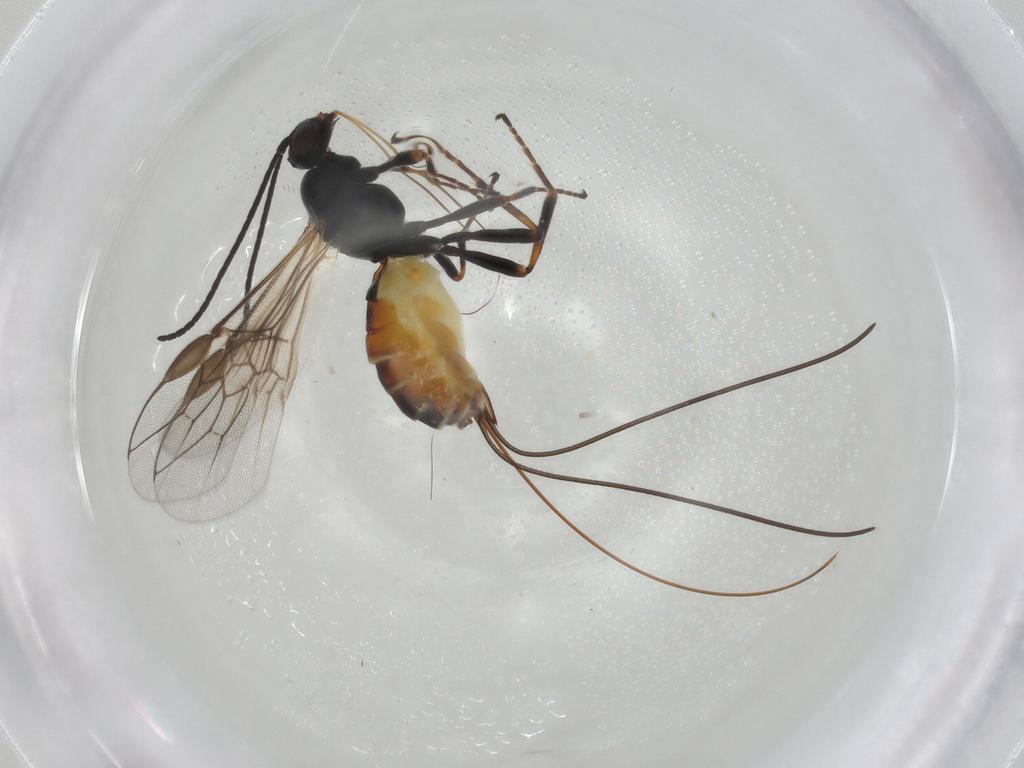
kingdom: Animalia
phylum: Arthropoda
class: Insecta
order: Hymenoptera
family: Braconidae
